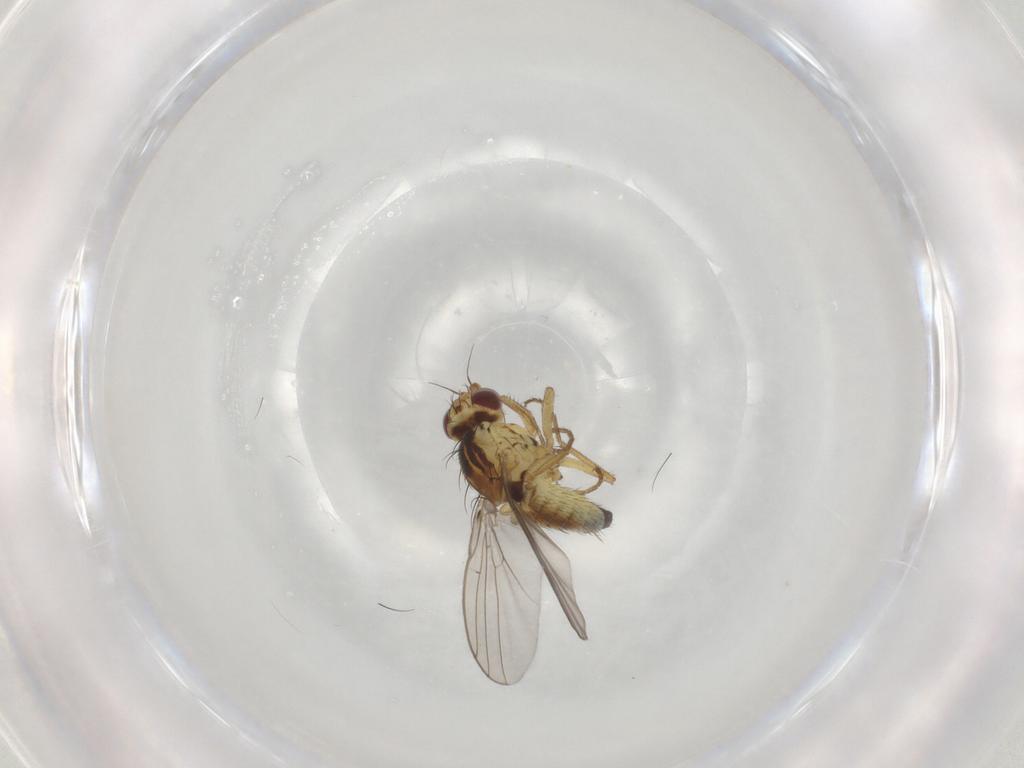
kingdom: Animalia
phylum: Arthropoda
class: Insecta
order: Diptera
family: Agromyzidae
